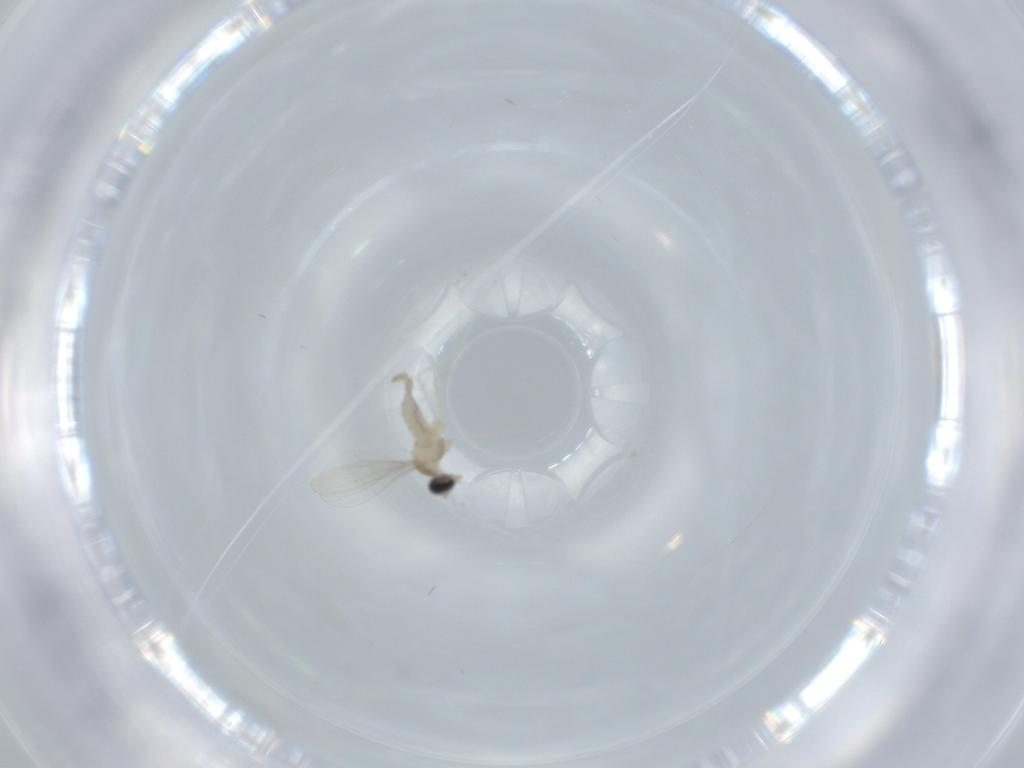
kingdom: Animalia
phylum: Arthropoda
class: Insecta
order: Diptera
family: Cecidomyiidae
